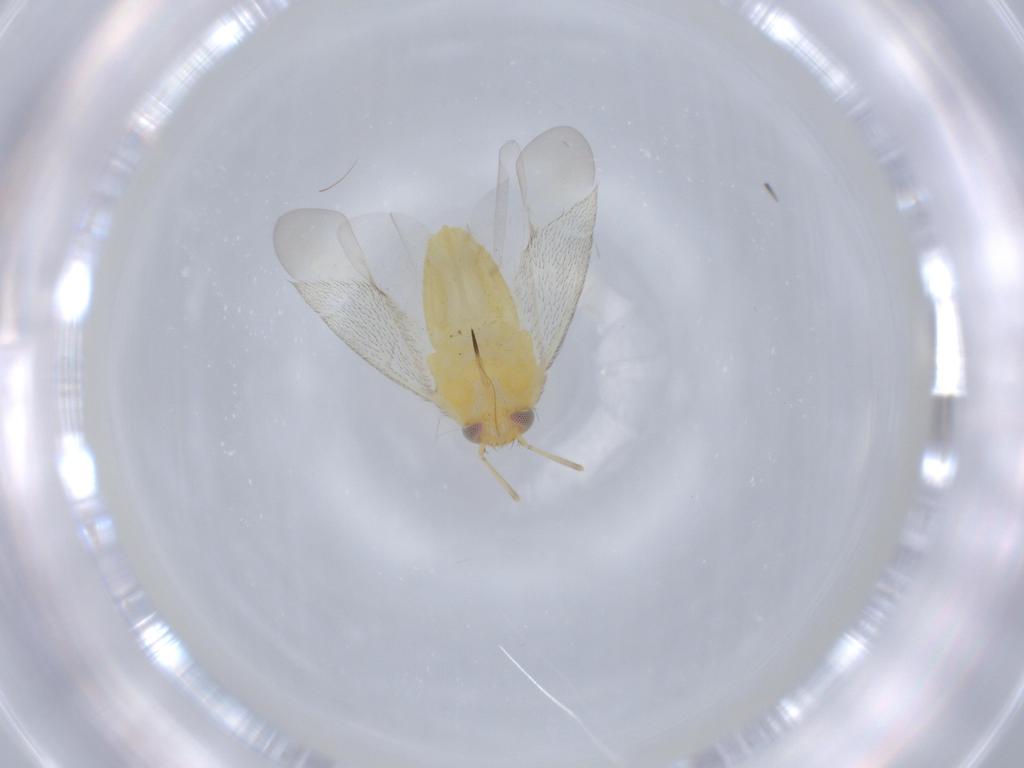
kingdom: Animalia
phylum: Arthropoda
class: Insecta
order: Hemiptera
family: Miridae
